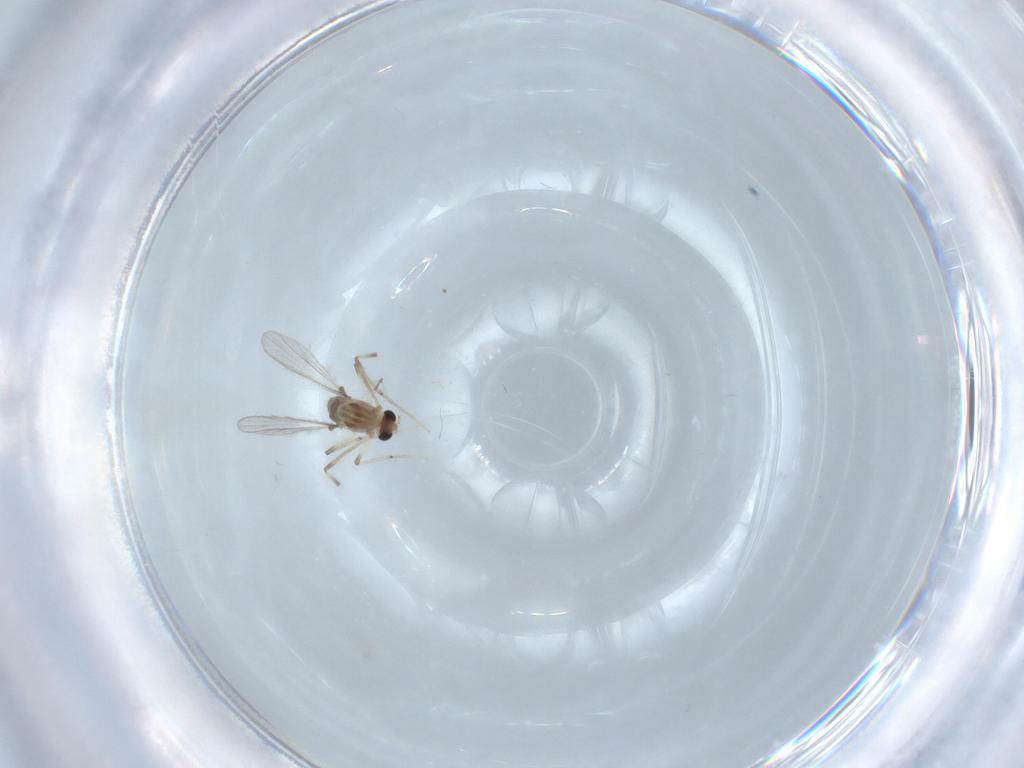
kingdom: Animalia
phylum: Arthropoda
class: Insecta
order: Diptera
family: Chironomidae
